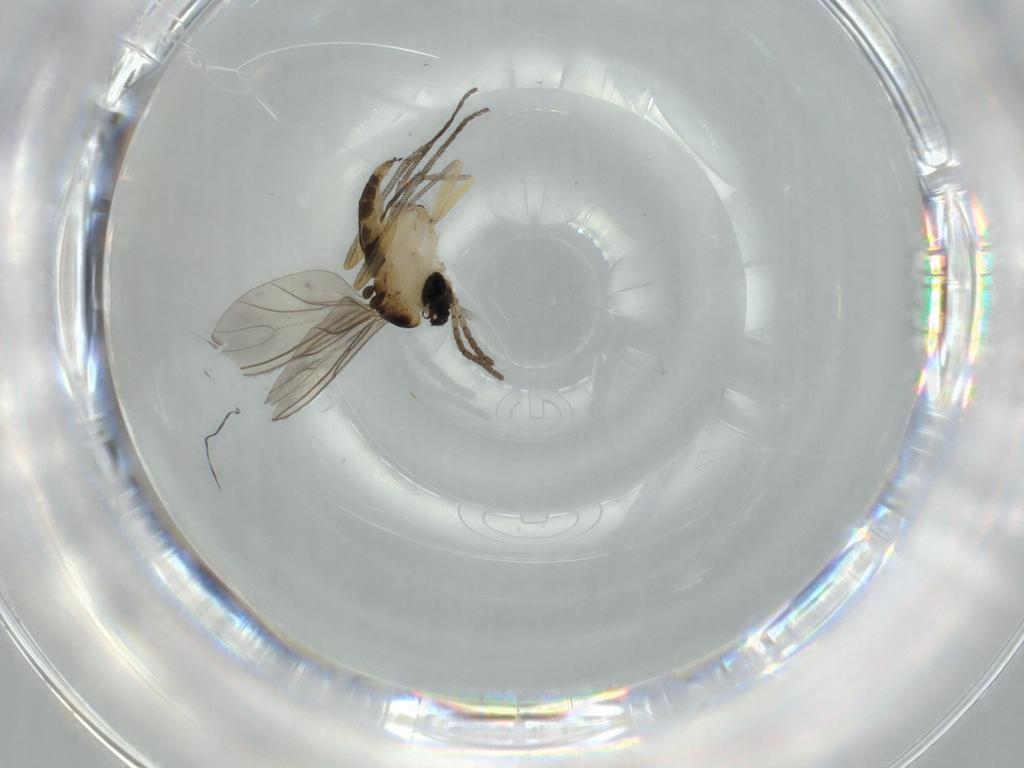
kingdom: Animalia
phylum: Arthropoda
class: Insecta
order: Diptera
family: Sciaridae
